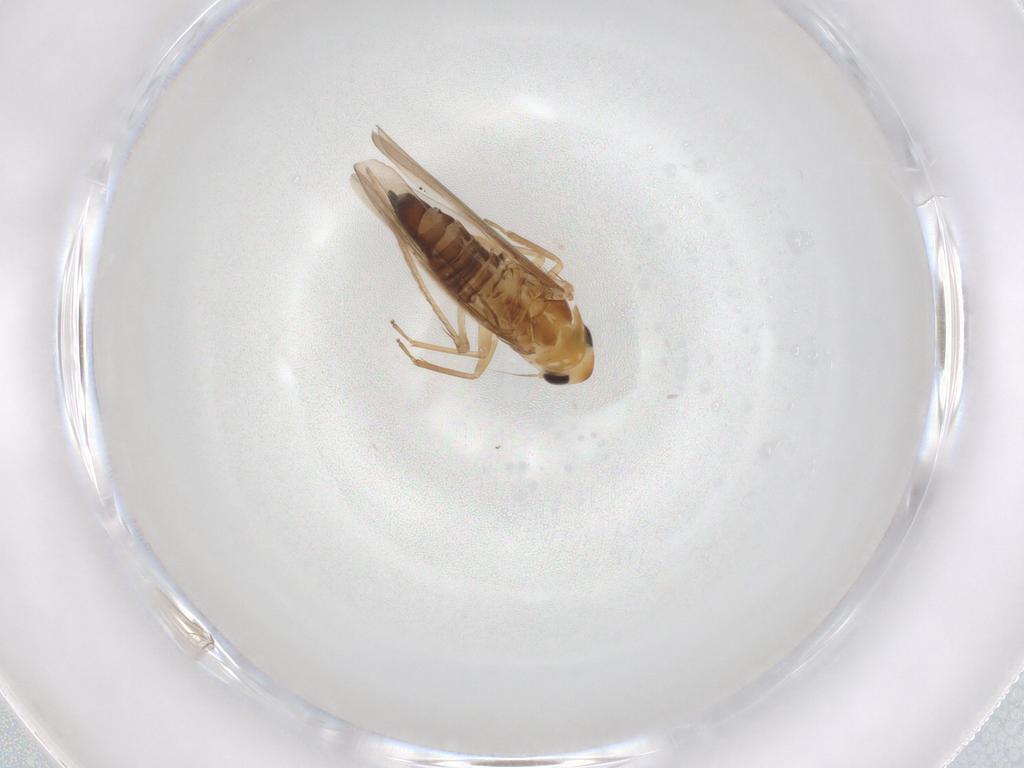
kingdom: Animalia
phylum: Arthropoda
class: Insecta
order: Hemiptera
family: Cicadellidae
